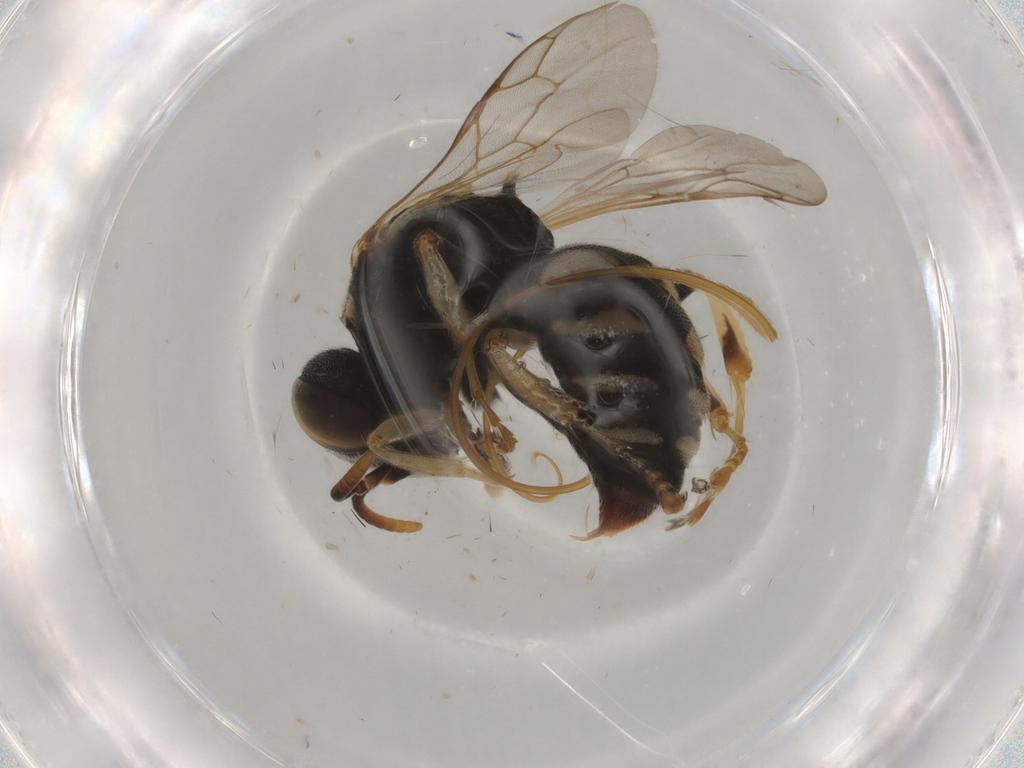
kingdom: Animalia
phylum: Arthropoda
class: Insecta
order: Hymenoptera
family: Crabronidae
